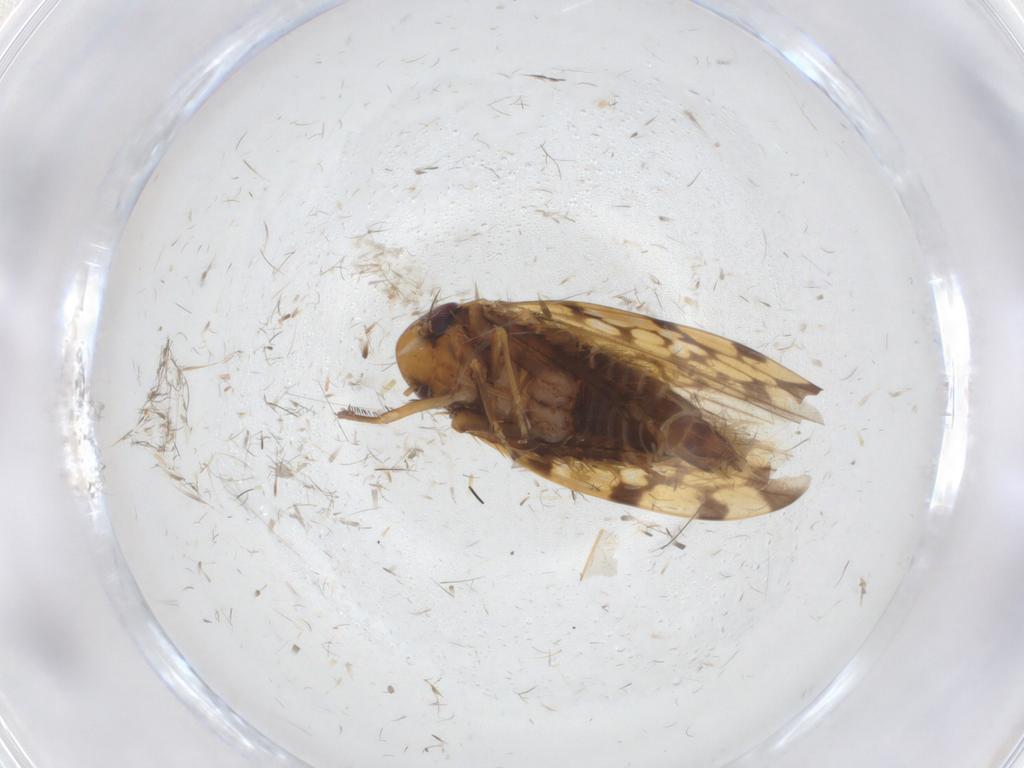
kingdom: Animalia
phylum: Arthropoda
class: Insecta
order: Hemiptera
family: Cicadellidae
